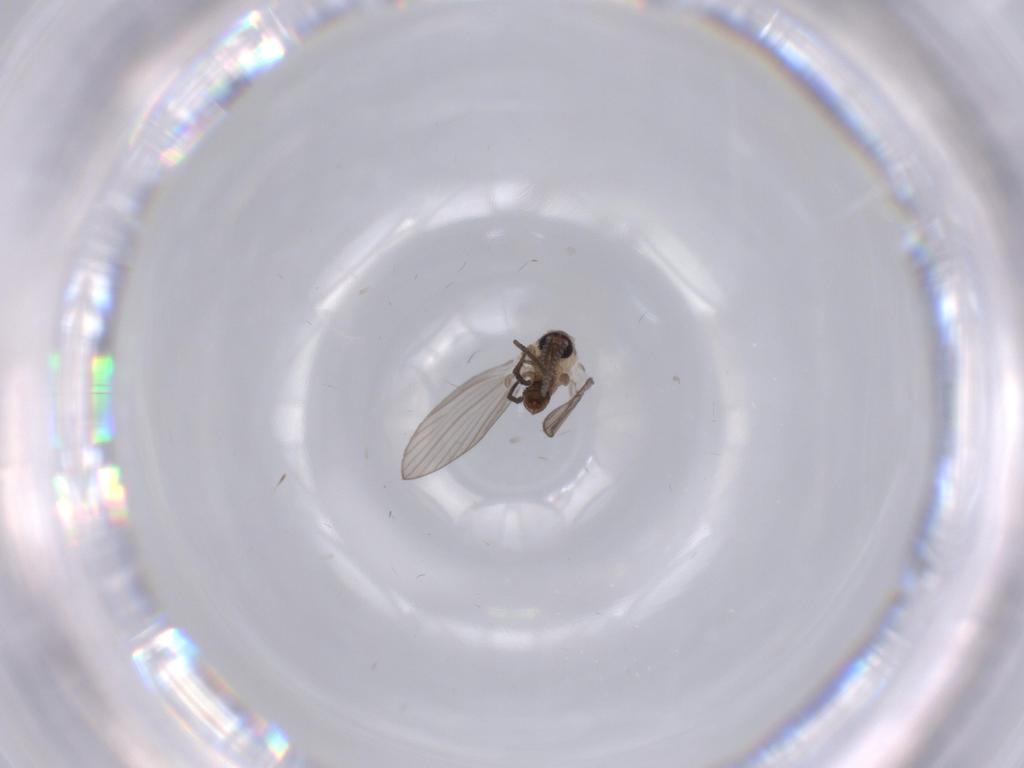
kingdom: Animalia
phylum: Arthropoda
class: Insecta
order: Diptera
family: Psychodidae
